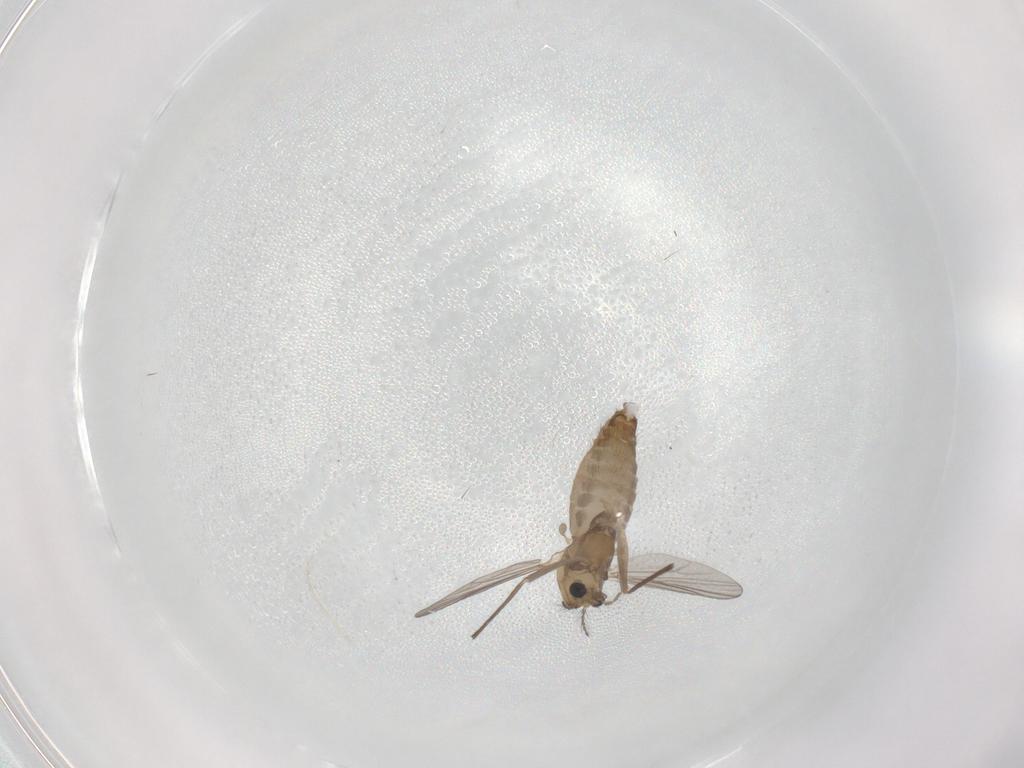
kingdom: Animalia
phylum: Arthropoda
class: Insecta
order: Diptera
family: Chironomidae
